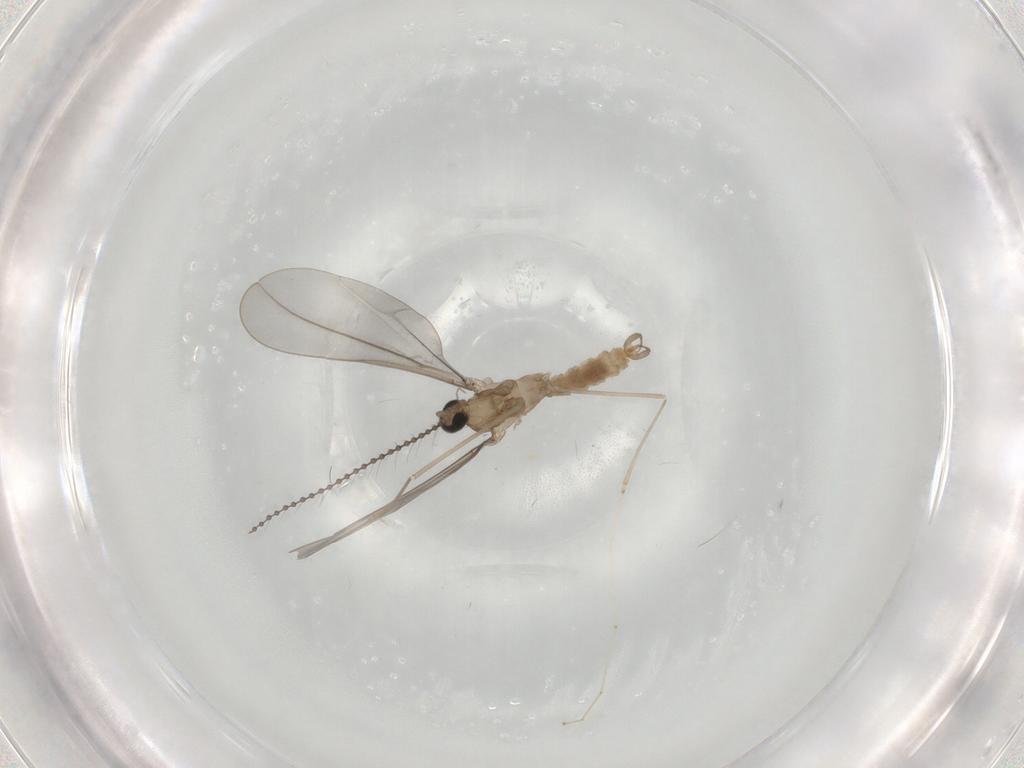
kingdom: Animalia
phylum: Arthropoda
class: Insecta
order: Diptera
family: Cecidomyiidae
